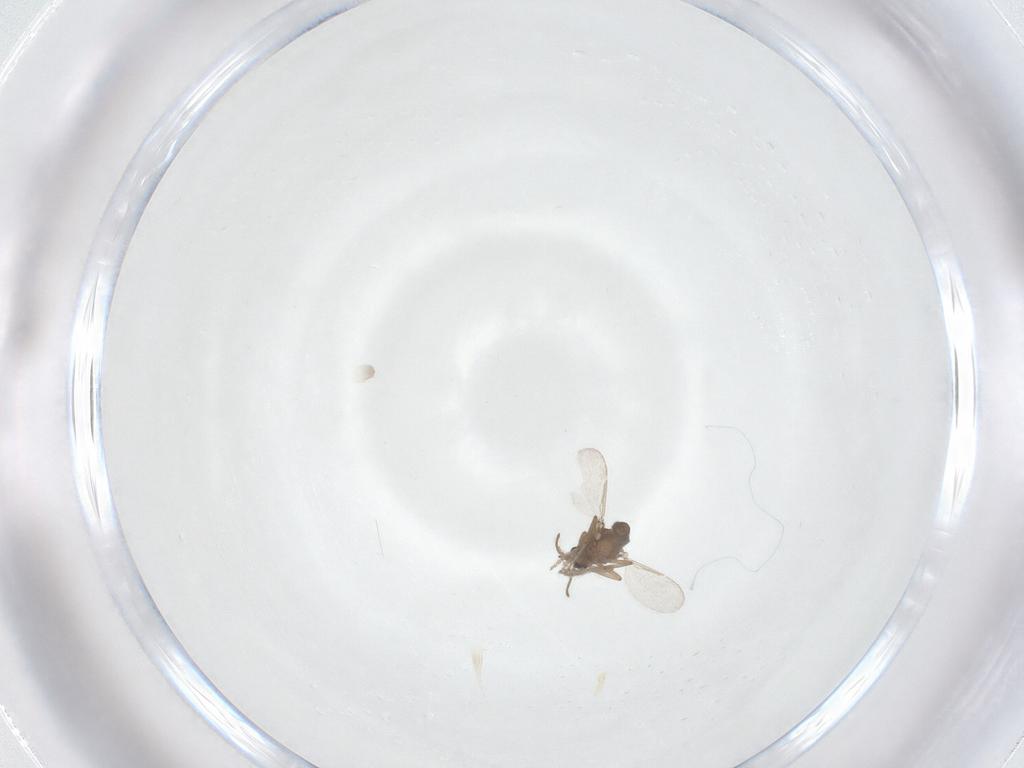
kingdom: Animalia
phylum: Arthropoda
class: Insecta
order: Diptera
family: Ceratopogonidae
